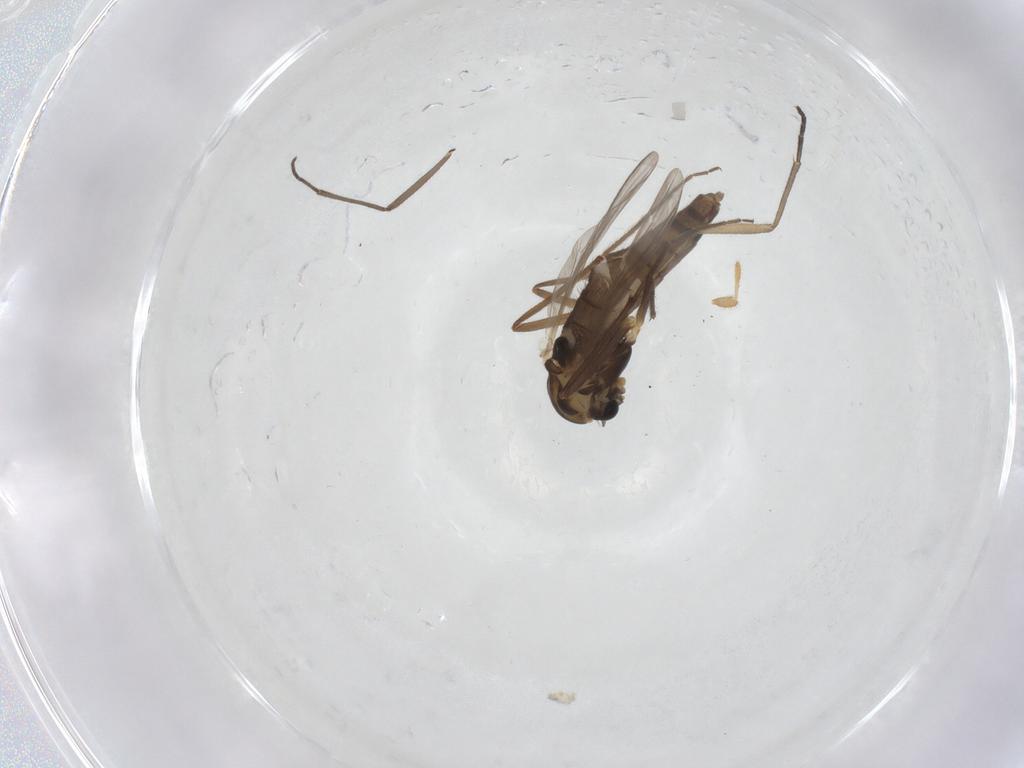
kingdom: Animalia
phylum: Arthropoda
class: Insecta
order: Diptera
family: Chironomidae
